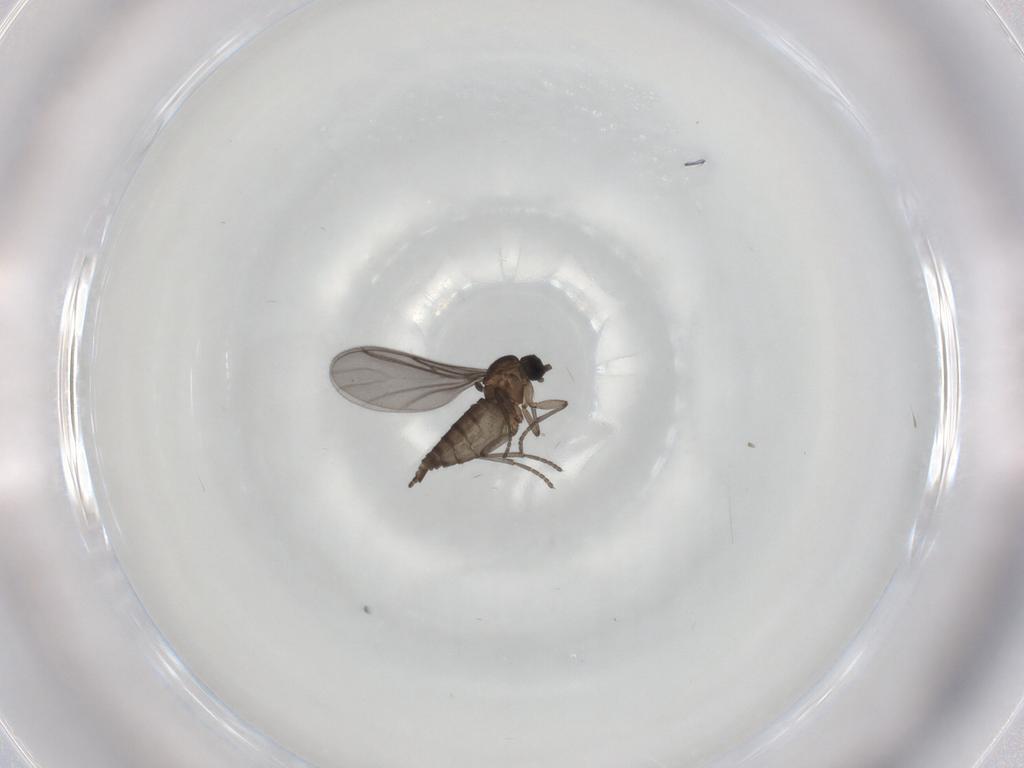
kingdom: Animalia
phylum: Arthropoda
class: Insecta
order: Diptera
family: Sciaridae
